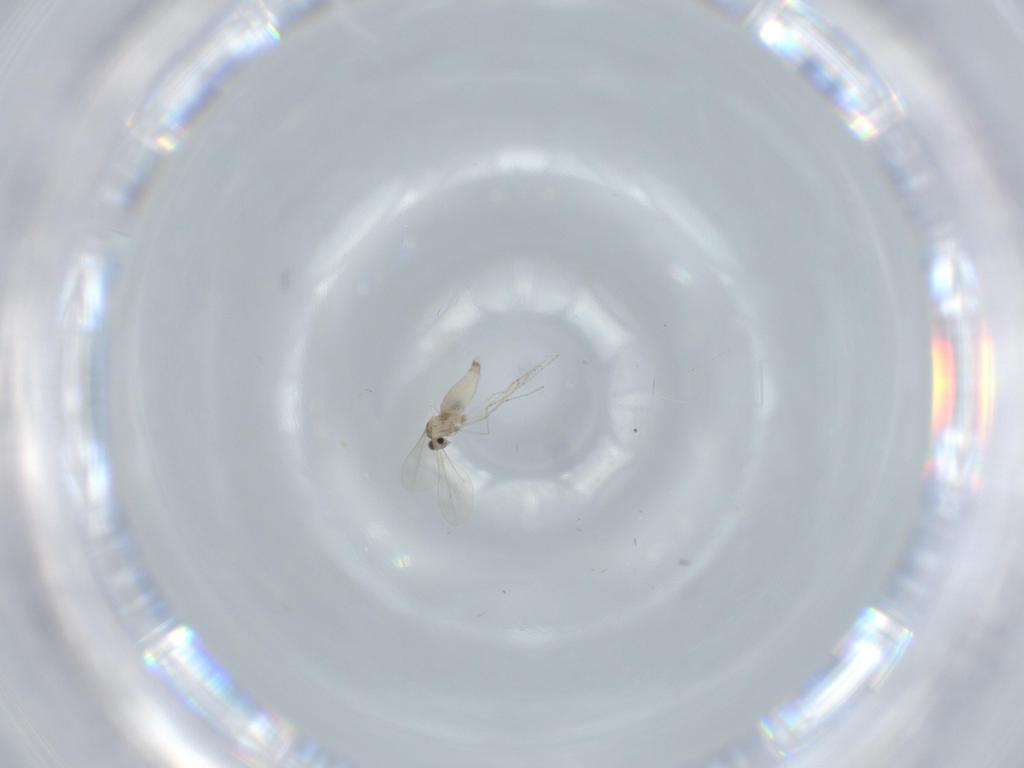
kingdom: Animalia
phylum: Arthropoda
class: Insecta
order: Diptera
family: Cecidomyiidae
